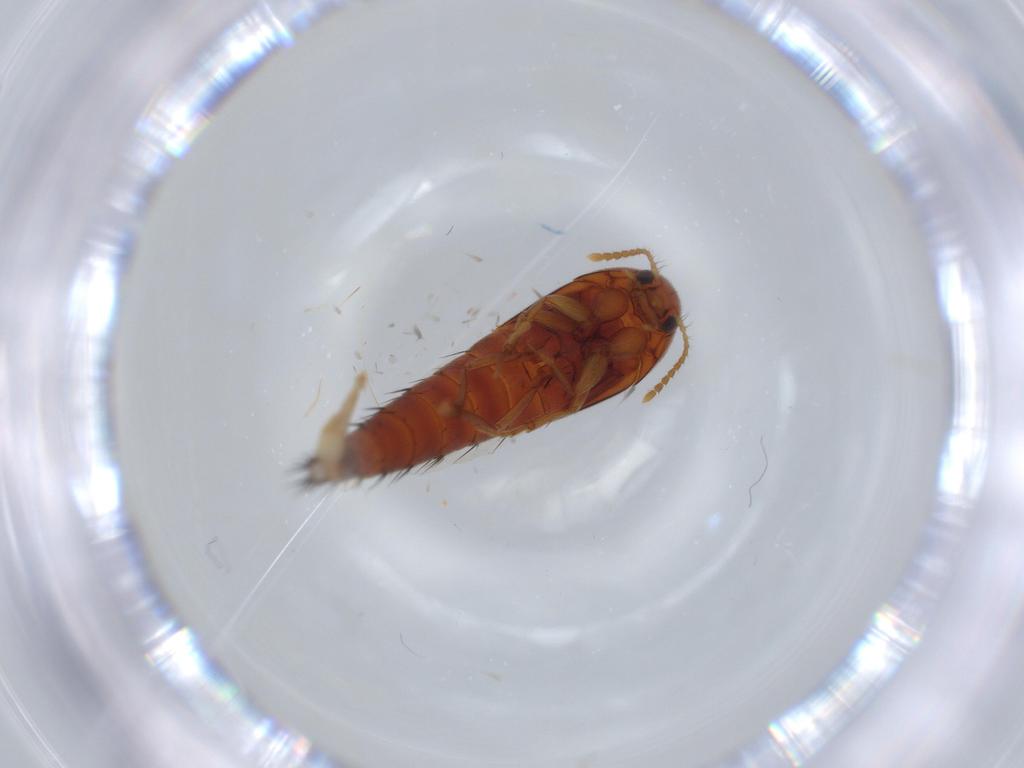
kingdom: Animalia
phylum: Arthropoda
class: Insecta
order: Coleoptera
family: Staphylinidae
